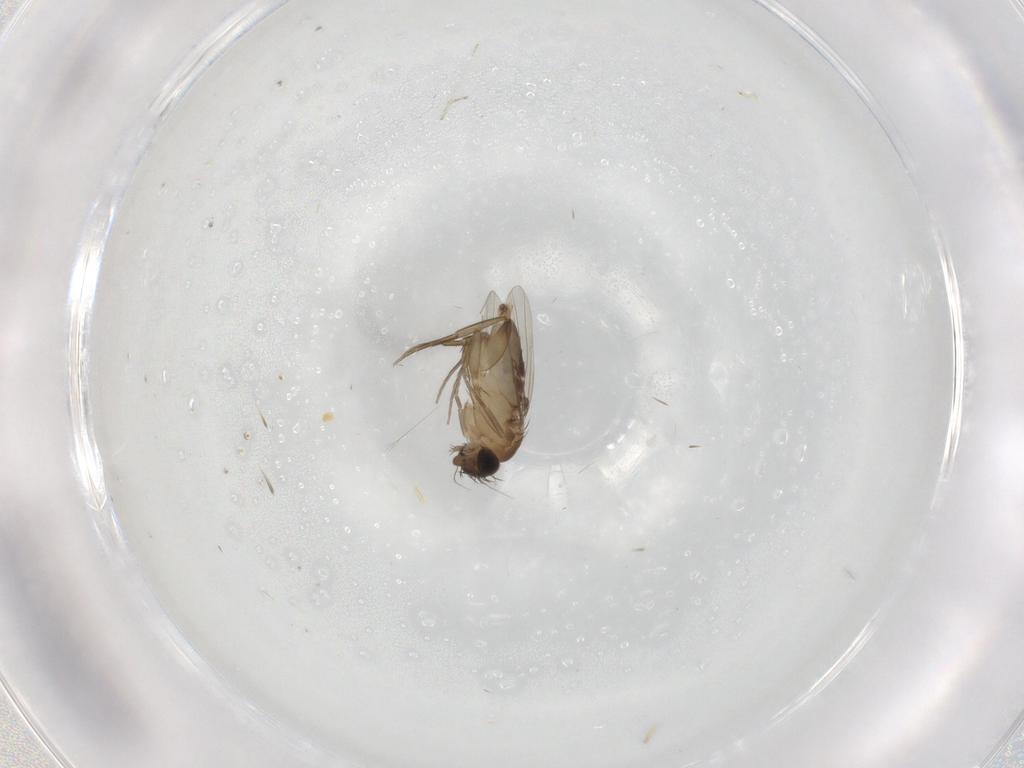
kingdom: Animalia
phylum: Arthropoda
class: Insecta
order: Diptera
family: Phoridae
